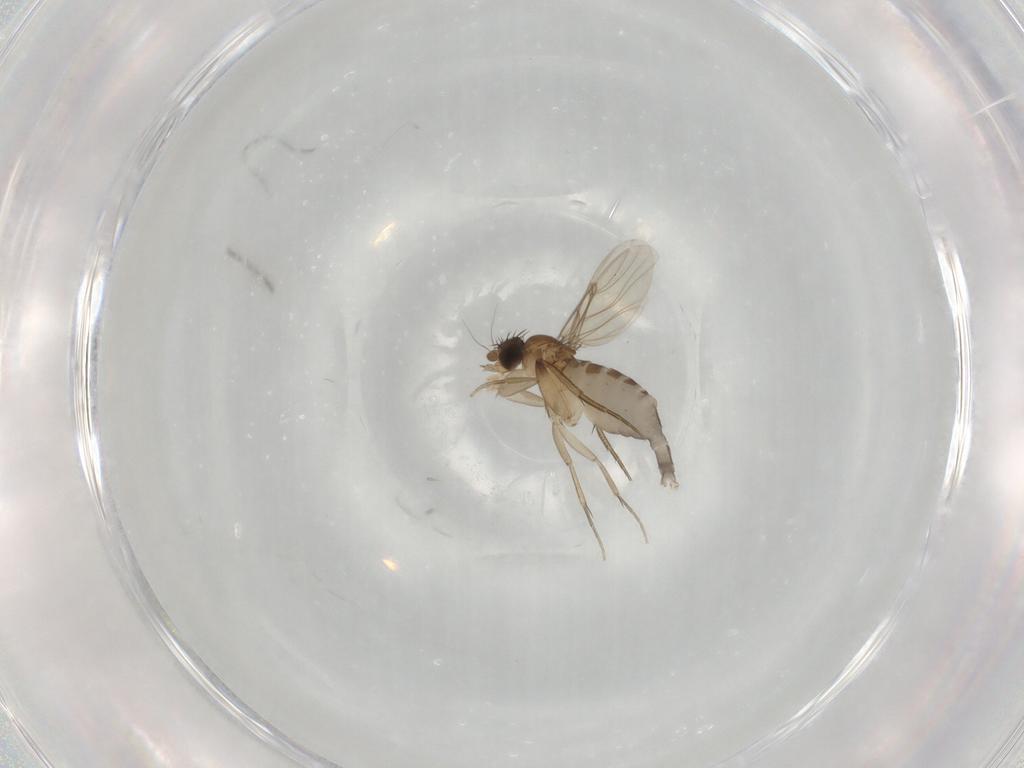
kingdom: Animalia
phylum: Arthropoda
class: Insecta
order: Diptera
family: Phoridae
